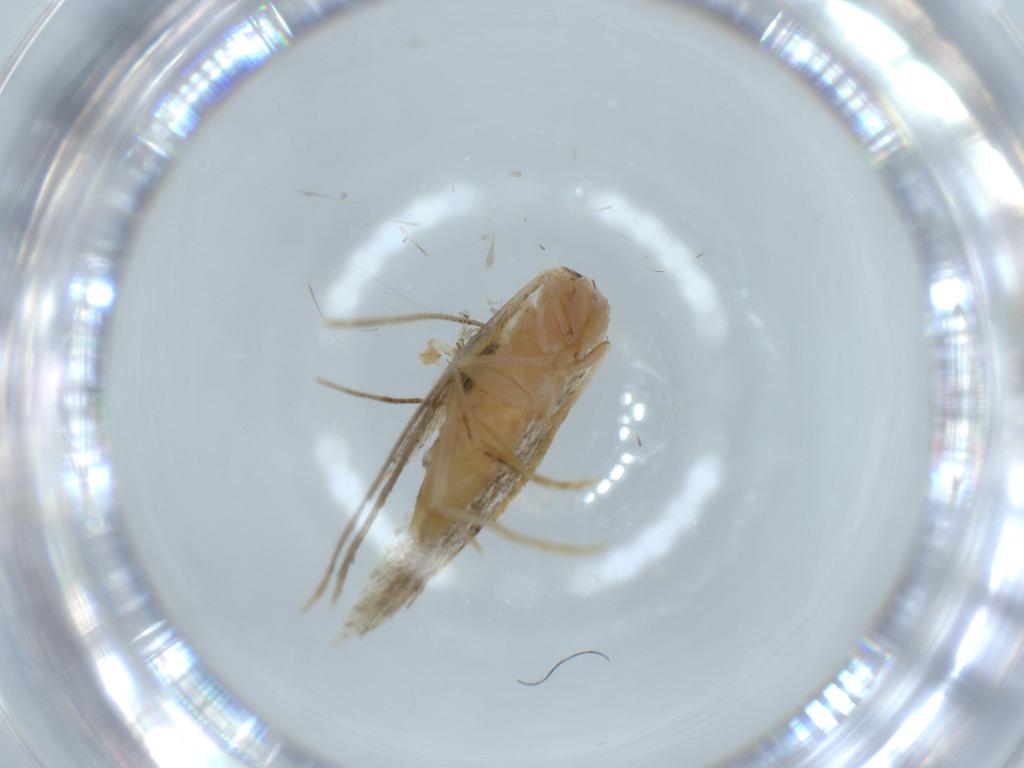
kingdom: Animalia
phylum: Arthropoda
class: Insecta
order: Lepidoptera
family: Tineidae
